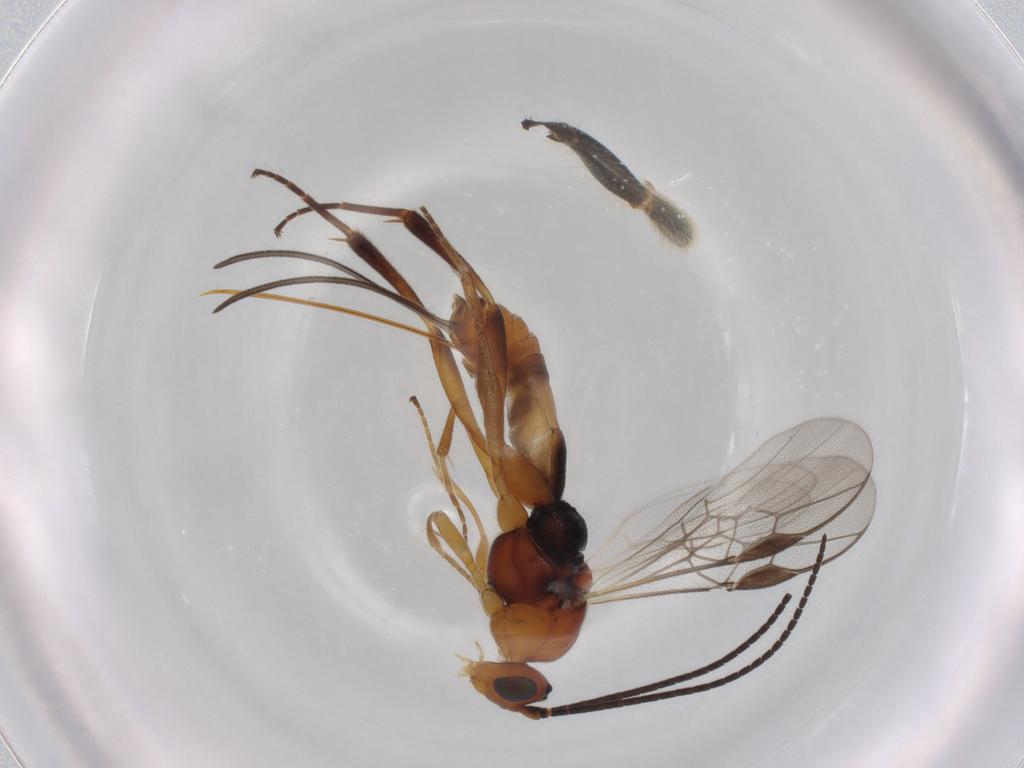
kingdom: Animalia
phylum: Arthropoda
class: Insecta
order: Hymenoptera
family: Braconidae
